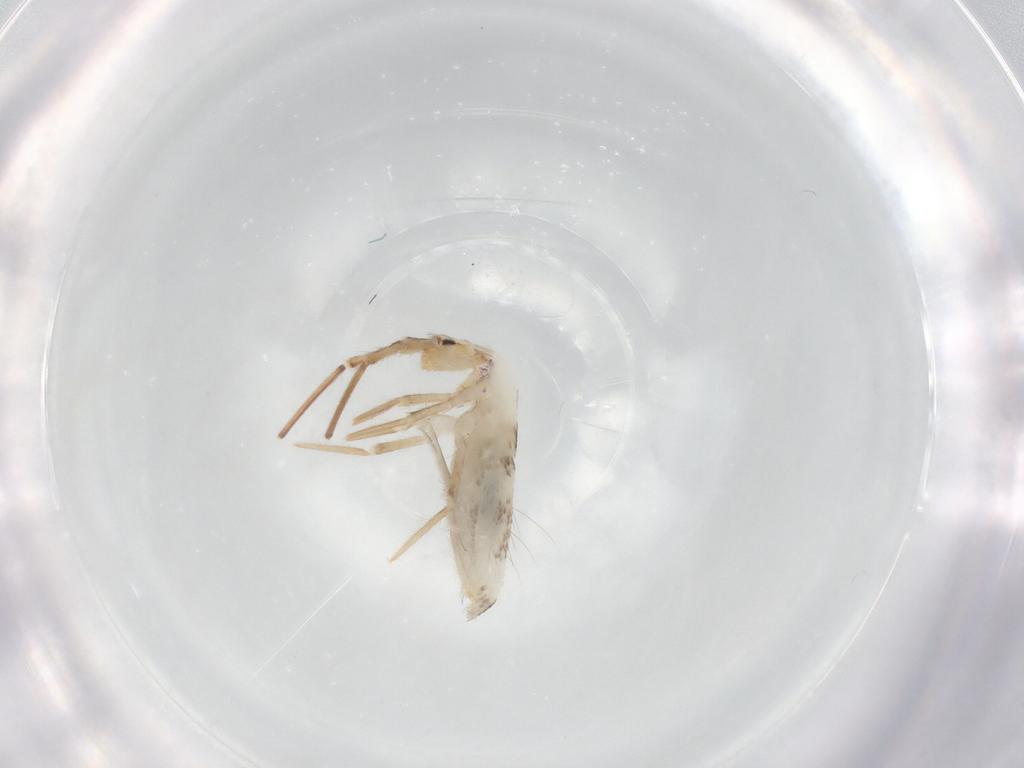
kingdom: Animalia
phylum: Arthropoda
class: Collembola
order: Entomobryomorpha
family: Entomobryidae
